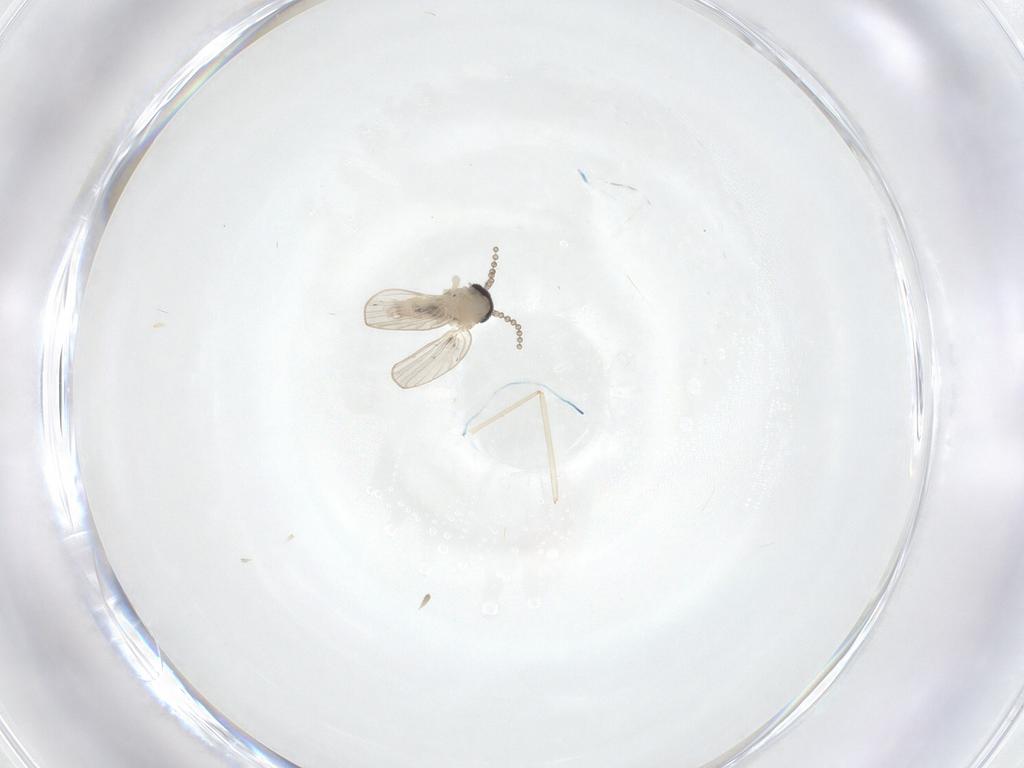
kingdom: Animalia
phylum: Arthropoda
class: Insecta
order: Diptera
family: Psychodidae
